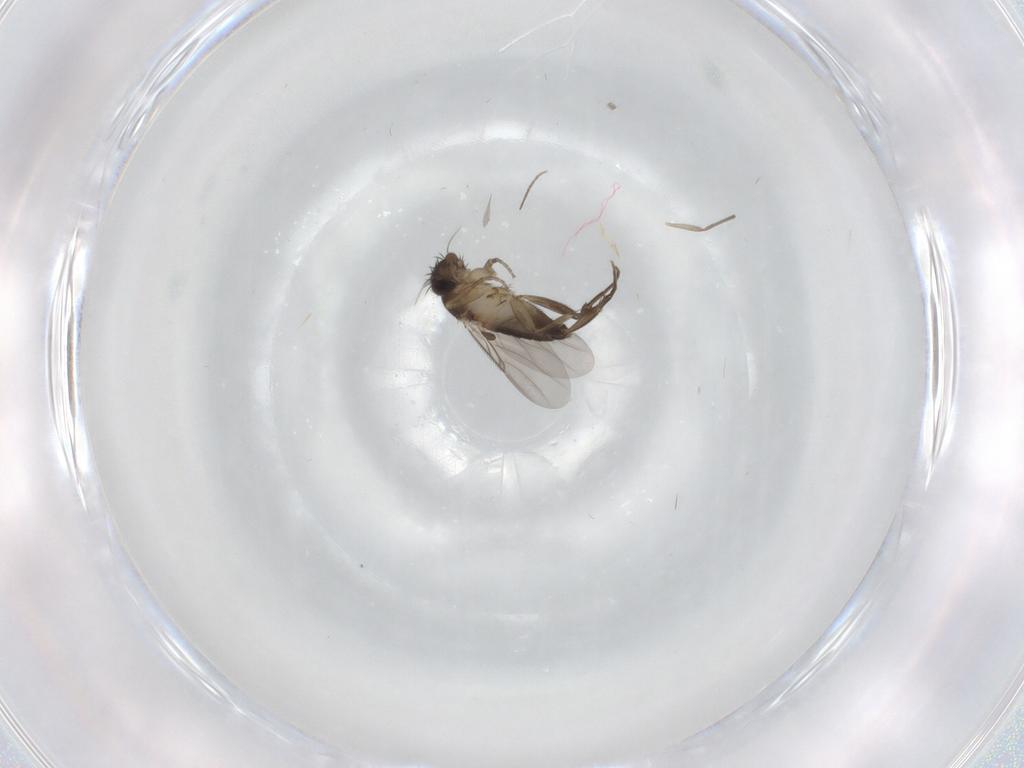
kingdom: Animalia
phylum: Arthropoda
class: Insecta
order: Diptera
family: Phoridae
